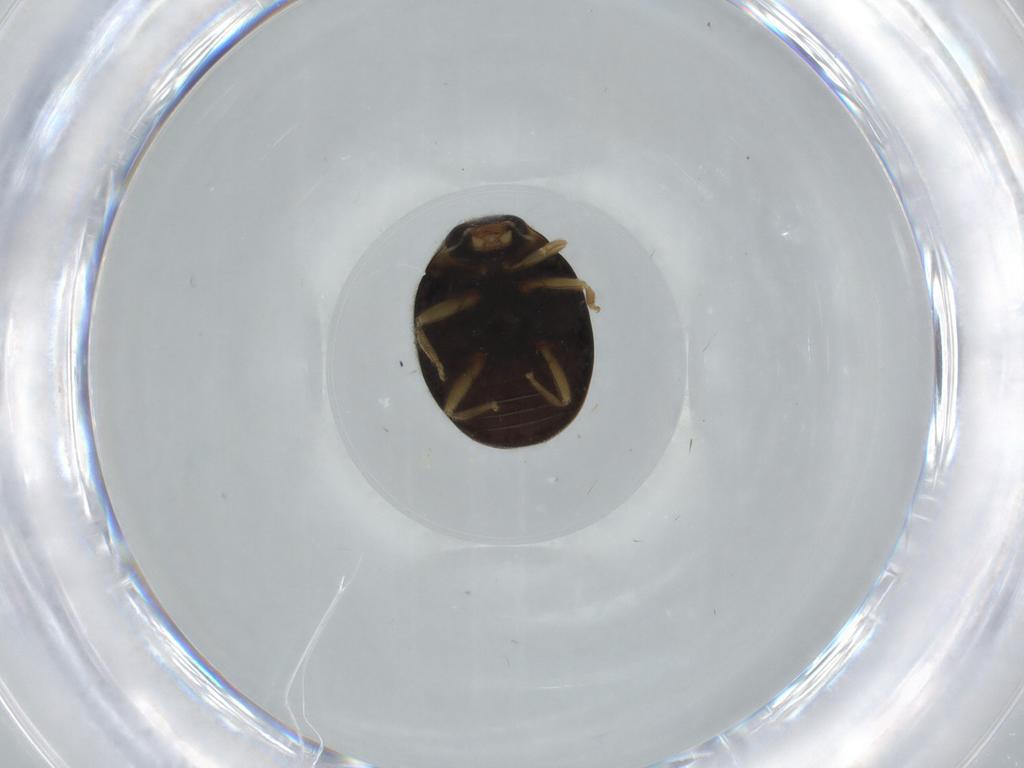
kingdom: Animalia
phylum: Arthropoda
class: Insecta
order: Coleoptera
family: Coccinellidae
